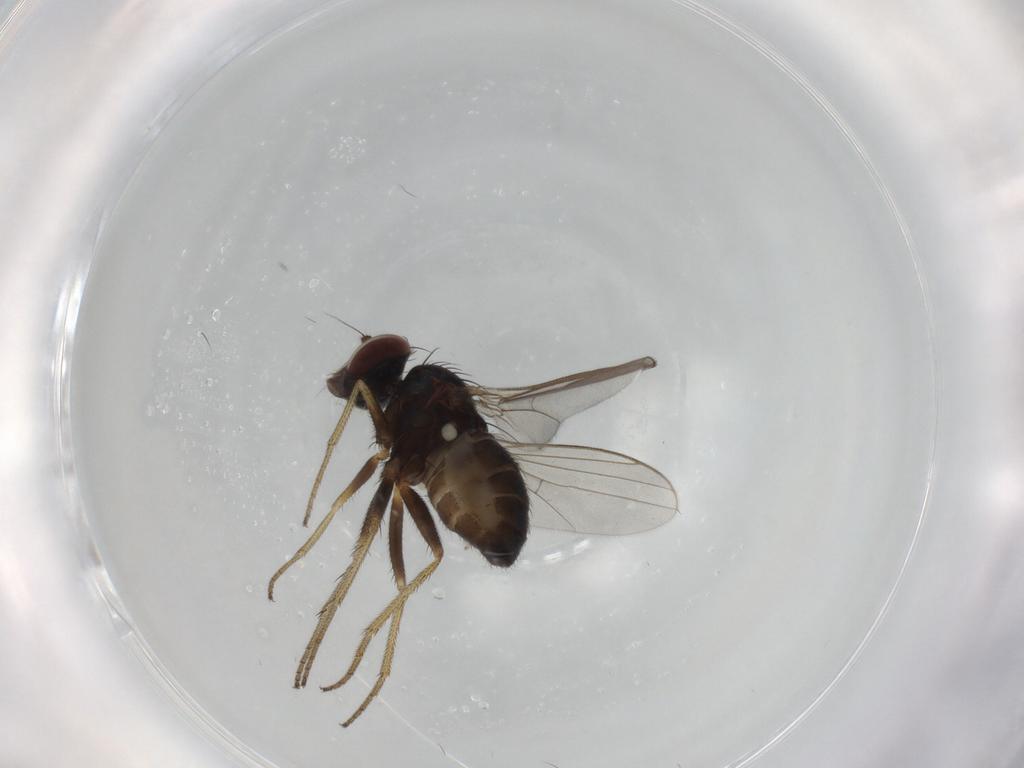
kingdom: Animalia
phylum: Arthropoda
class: Insecta
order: Diptera
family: Dolichopodidae
